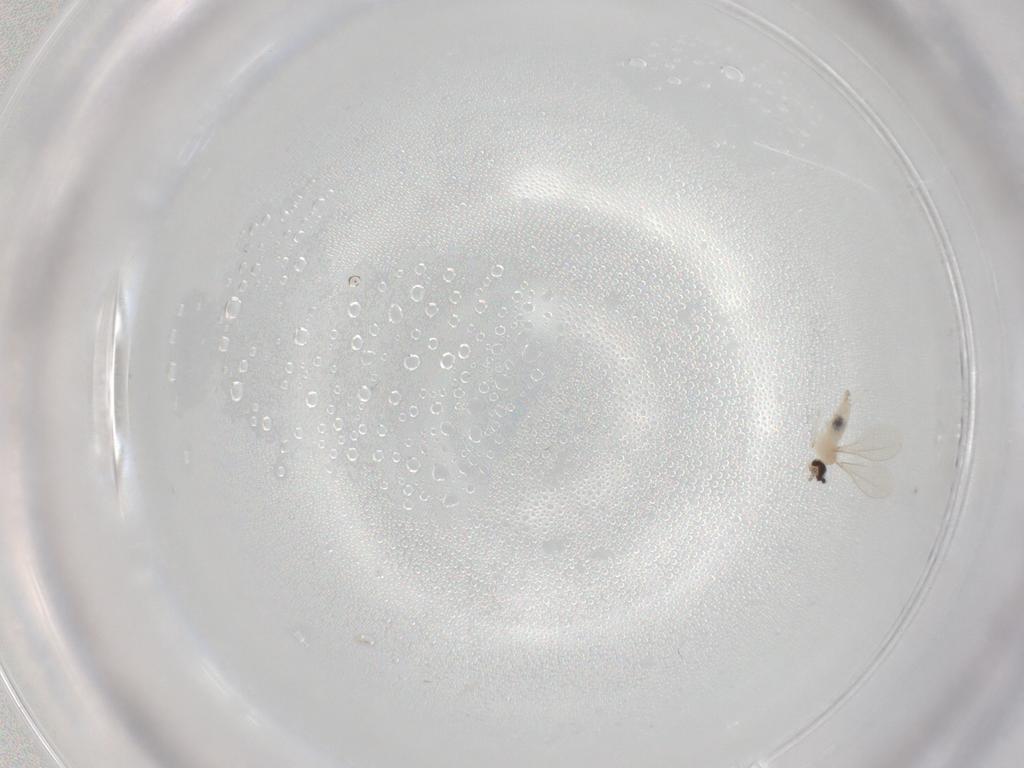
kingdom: Animalia
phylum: Arthropoda
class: Insecta
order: Diptera
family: Cecidomyiidae
